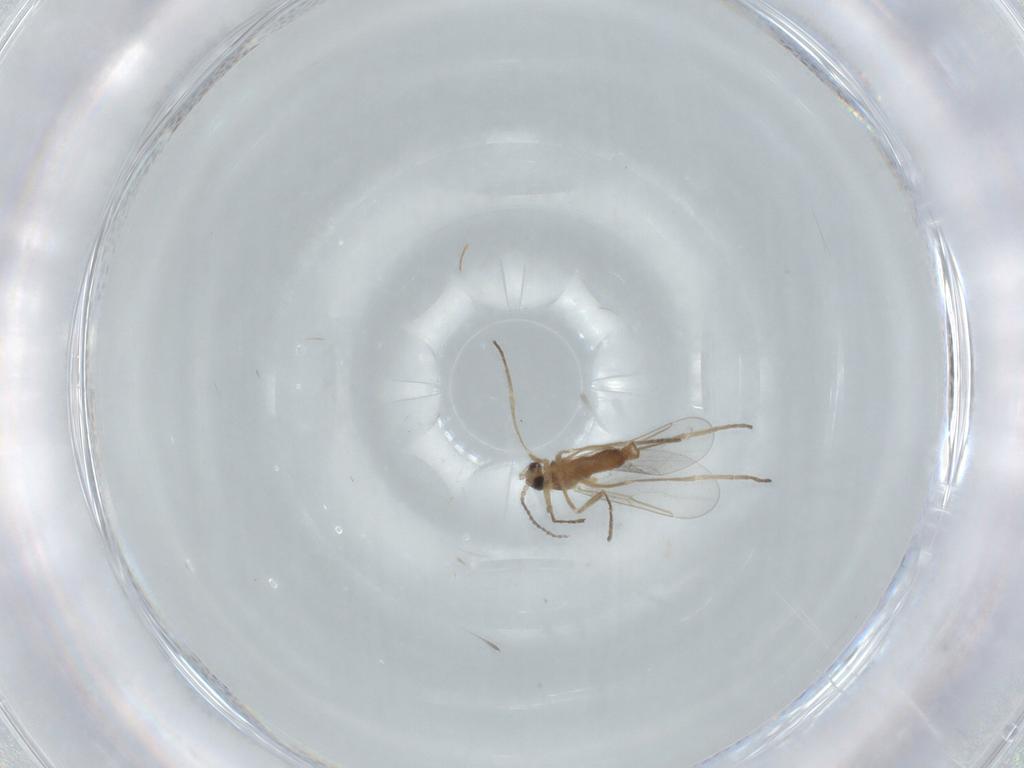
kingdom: Animalia
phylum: Arthropoda
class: Insecta
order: Diptera
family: Cecidomyiidae
